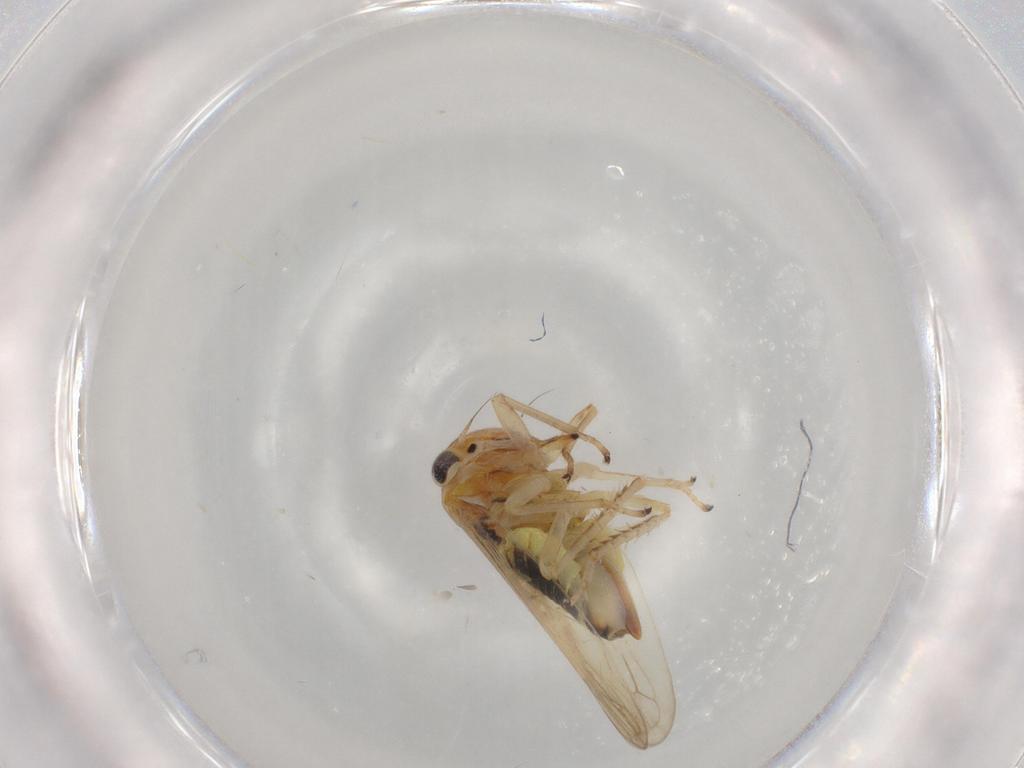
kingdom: Animalia
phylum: Arthropoda
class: Insecta
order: Hemiptera
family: Cicadellidae
